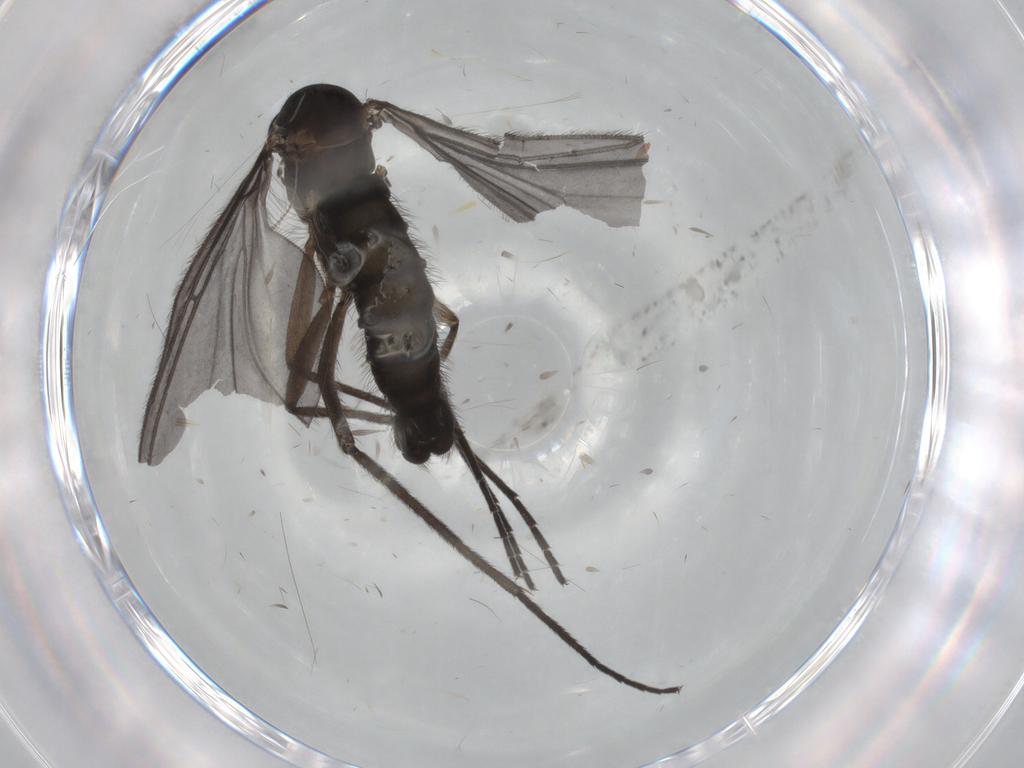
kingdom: Animalia
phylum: Arthropoda
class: Insecta
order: Diptera
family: Sciaridae
